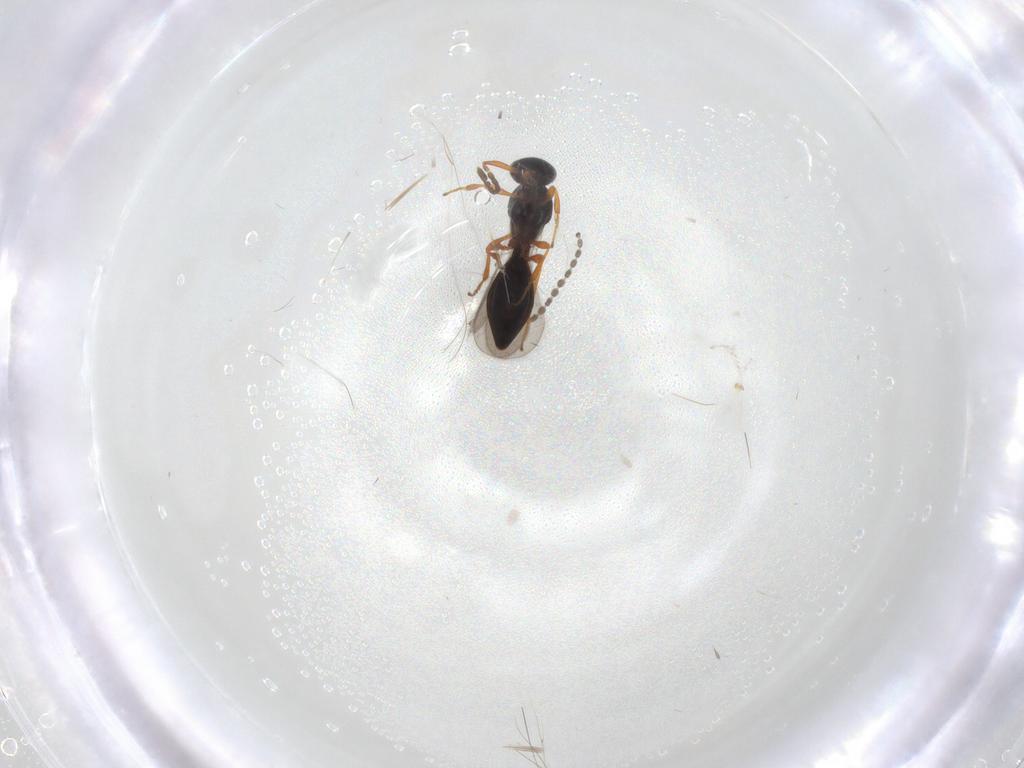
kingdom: Animalia
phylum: Arthropoda
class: Insecta
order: Hymenoptera
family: Platygastridae
